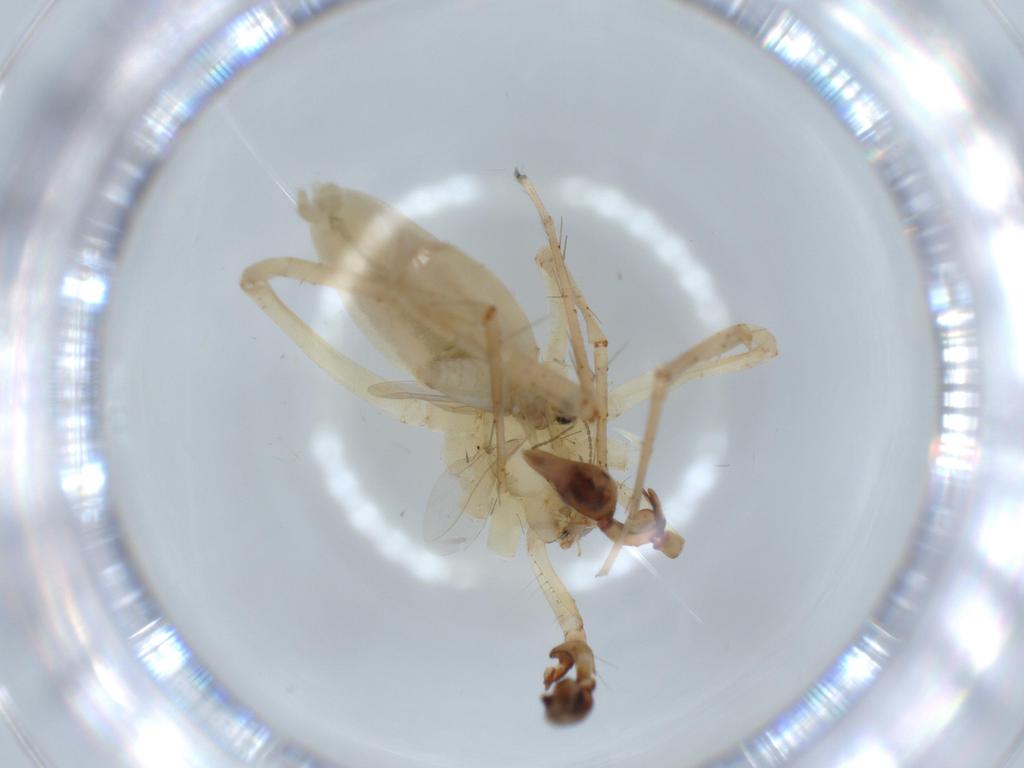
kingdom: Animalia
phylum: Arthropoda
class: Arachnida
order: Araneae
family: Anyphaenidae
